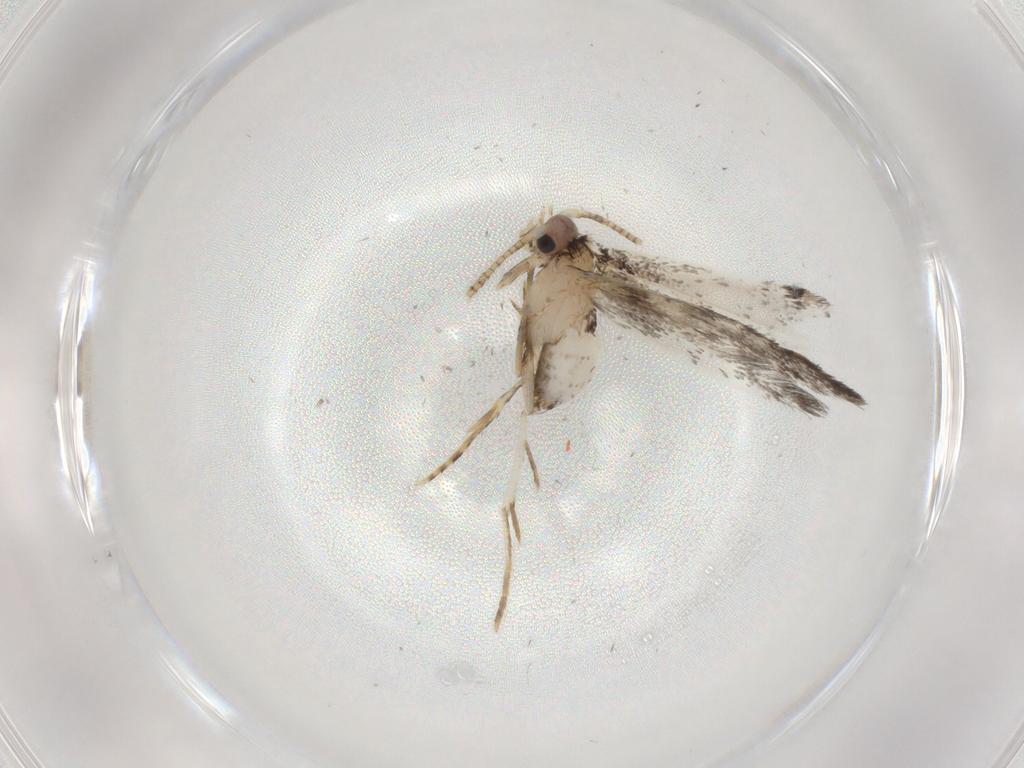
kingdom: Animalia
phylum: Arthropoda
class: Insecta
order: Lepidoptera
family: Tineidae
